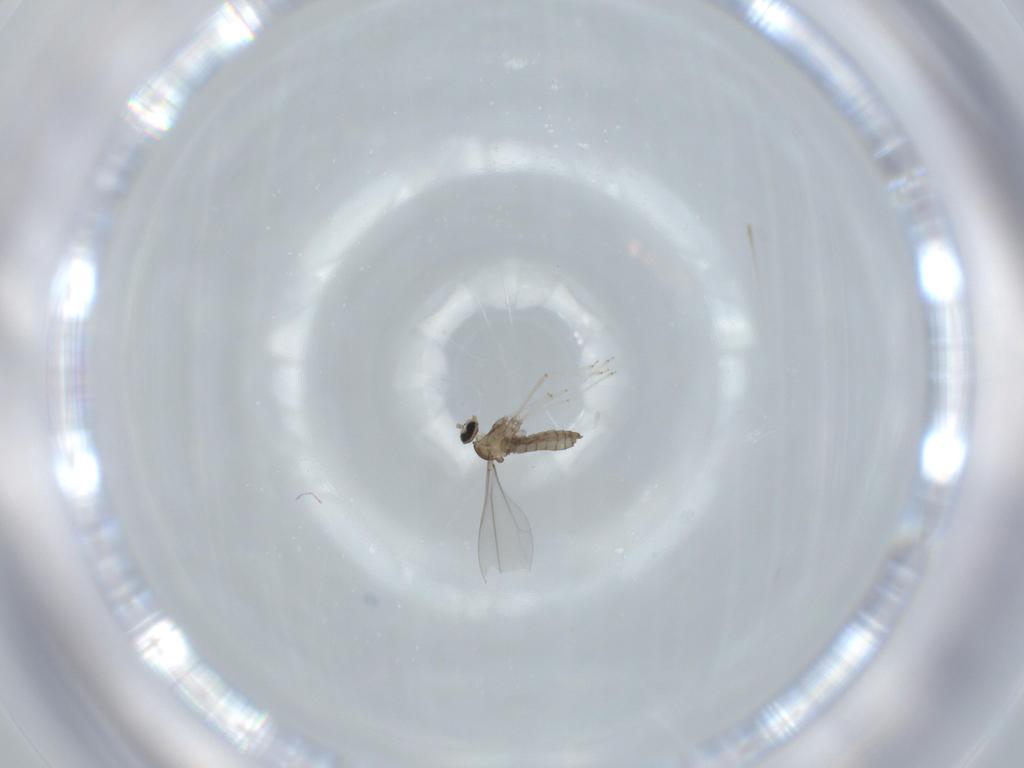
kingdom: Animalia
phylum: Arthropoda
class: Insecta
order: Diptera
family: Cecidomyiidae
